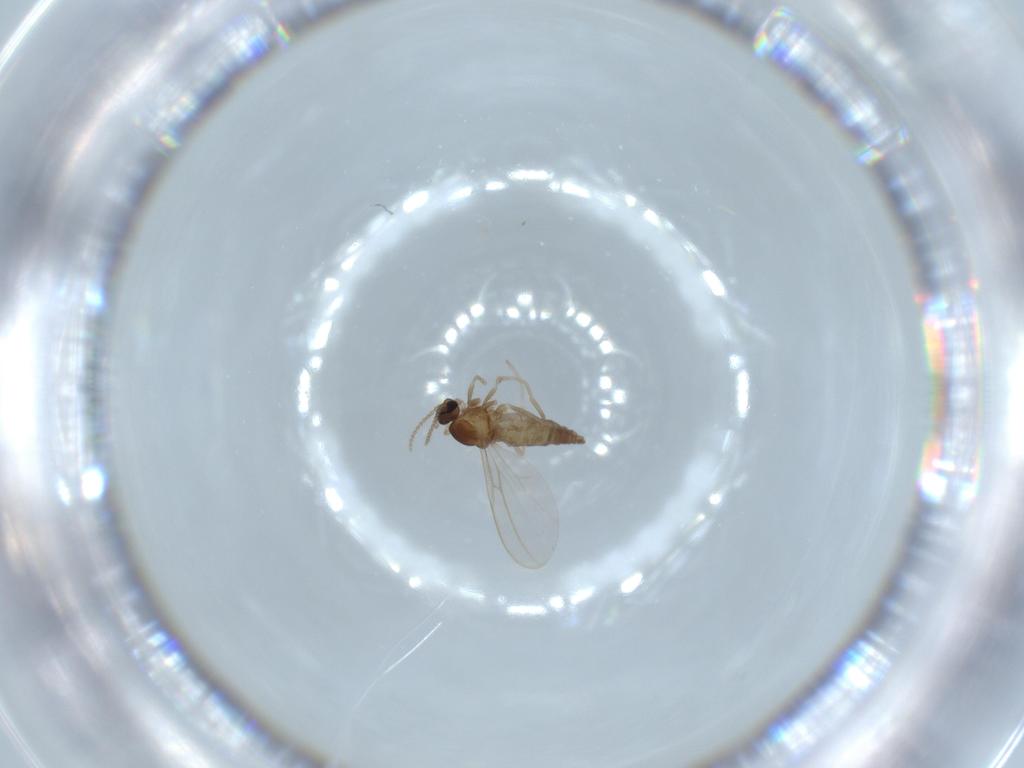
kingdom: Animalia
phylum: Arthropoda
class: Insecta
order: Diptera
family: Cecidomyiidae
